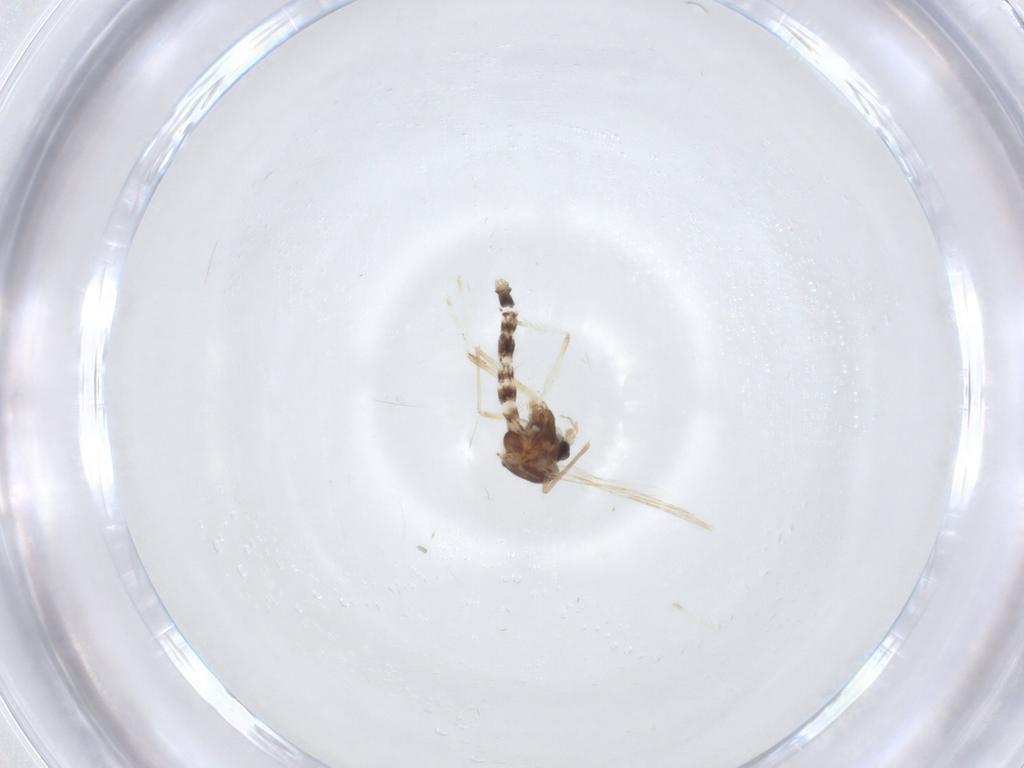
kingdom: Animalia
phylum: Arthropoda
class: Insecta
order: Diptera
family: Chironomidae
